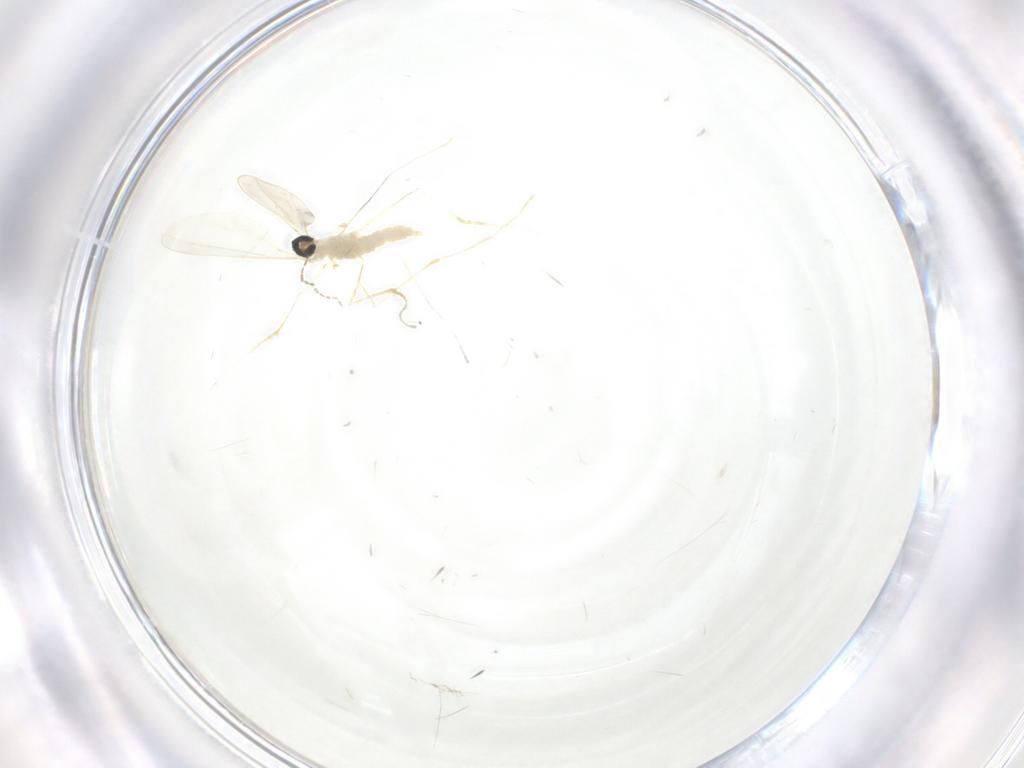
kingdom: Animalia
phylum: Arthropoda
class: Insecta
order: Diptera
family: Cecidomyiidae
